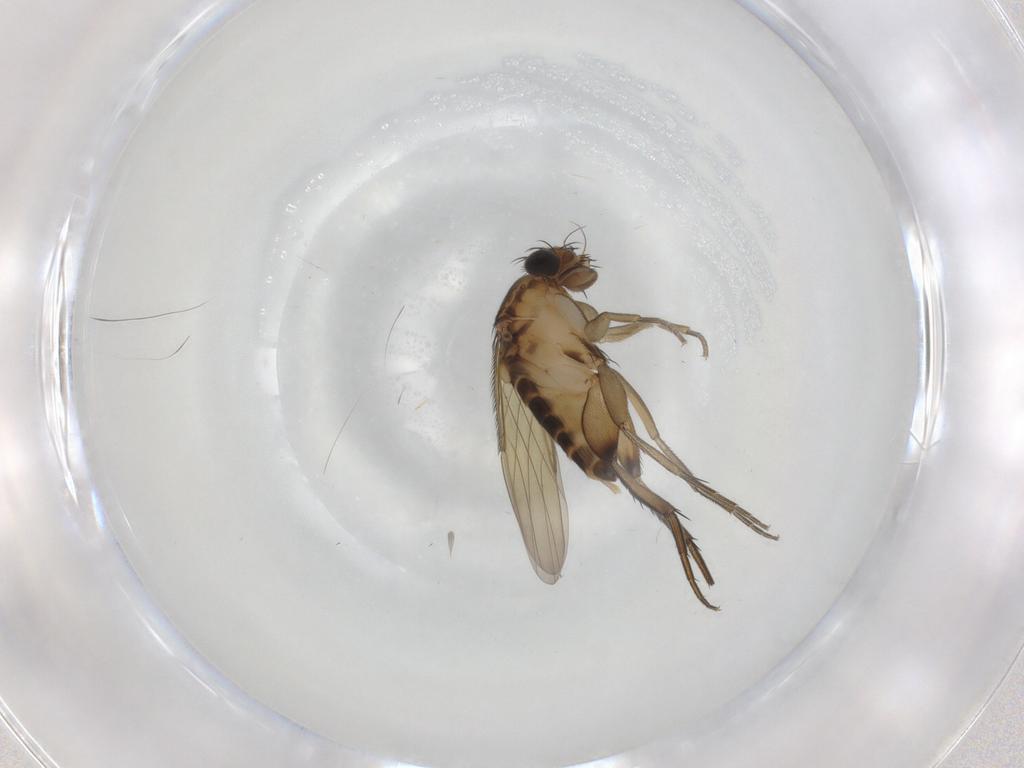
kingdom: Animalia
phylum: Arthropoda
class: Insecta
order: Diptera
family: Phoridae
